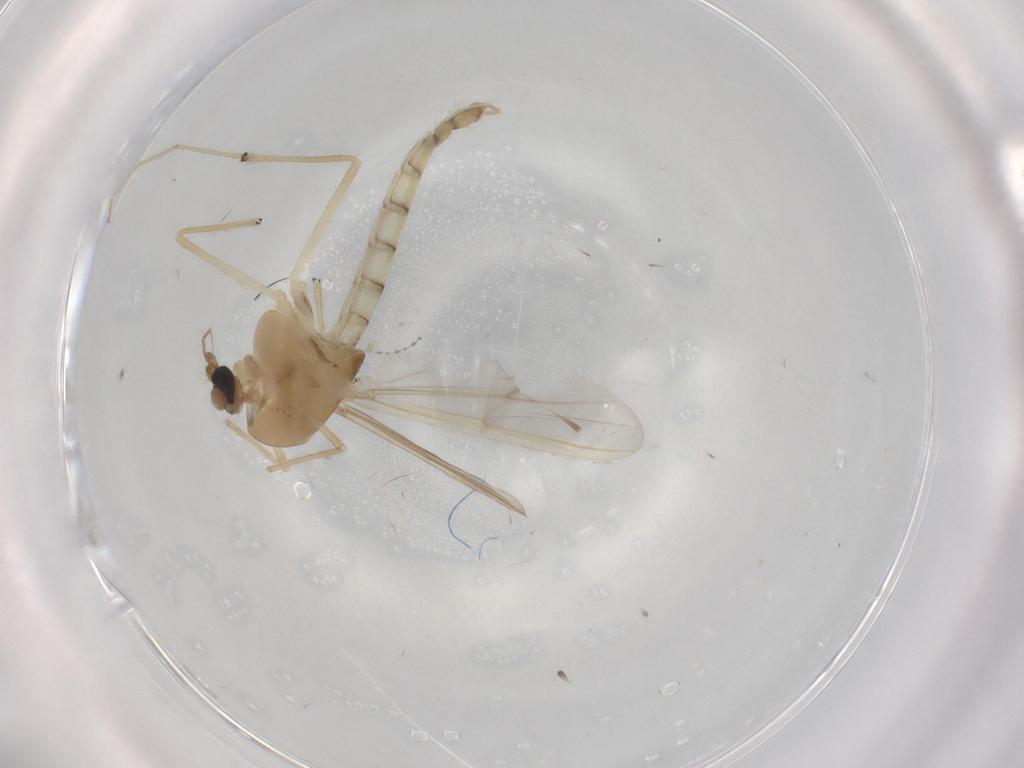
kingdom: Animalia
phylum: Arthropoda
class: Insecta
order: Diptera
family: Chironomidae
